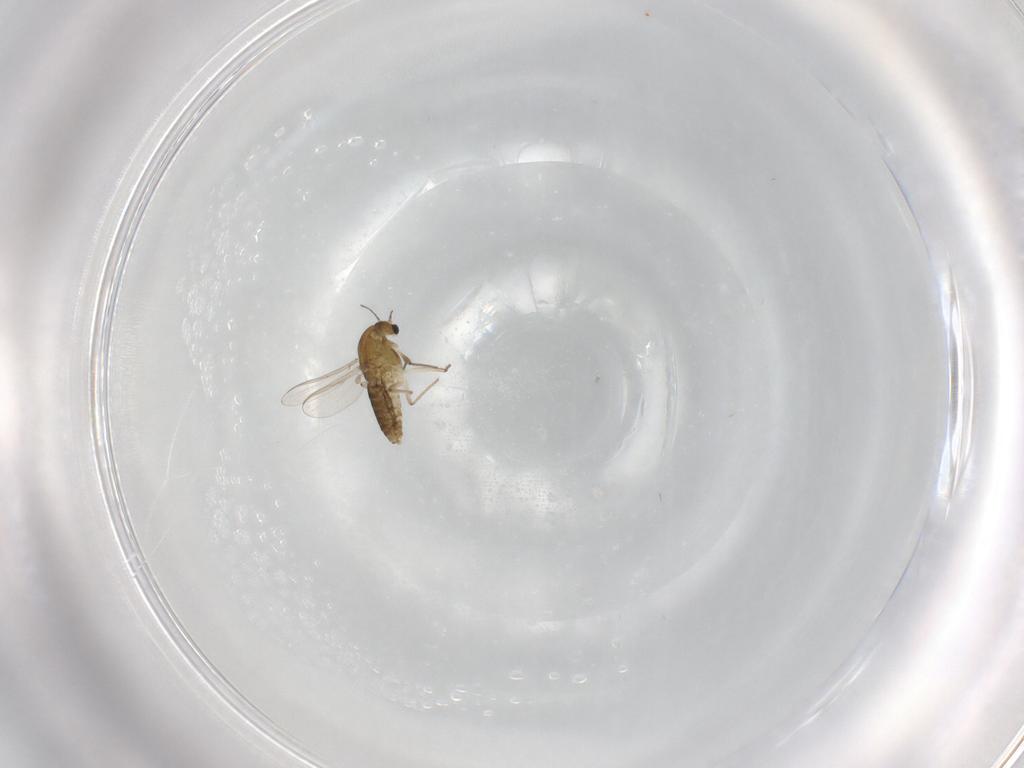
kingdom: Animalia
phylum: Arthropoda
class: Insecta
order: Diptera
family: Chironomidae
